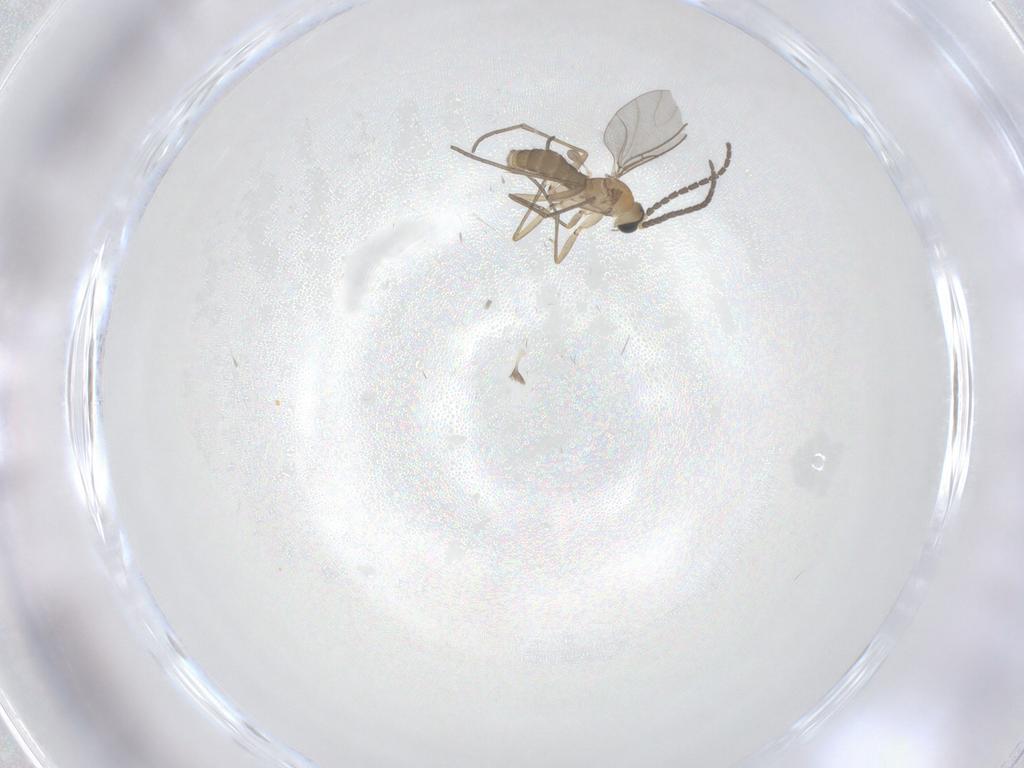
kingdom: Animalia
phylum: Arthropoda
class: Insecta
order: Diptera
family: Sciaridae
